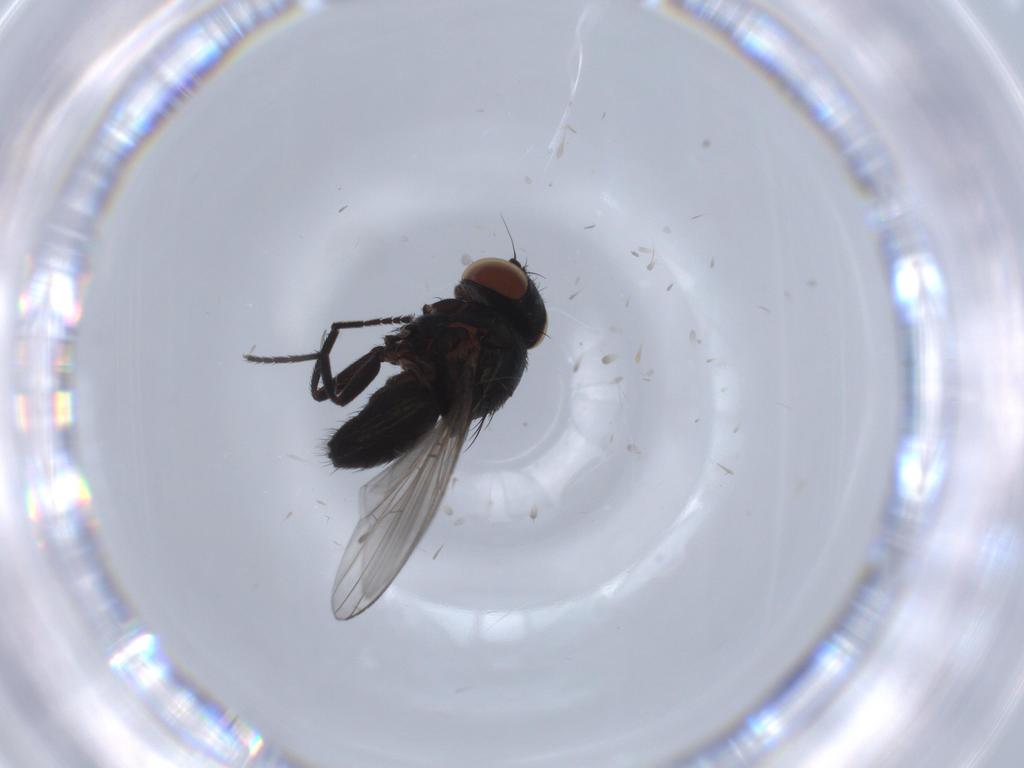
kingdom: Animalia
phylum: Arthropoda
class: Insecta
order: Diptera
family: Milichiidae
